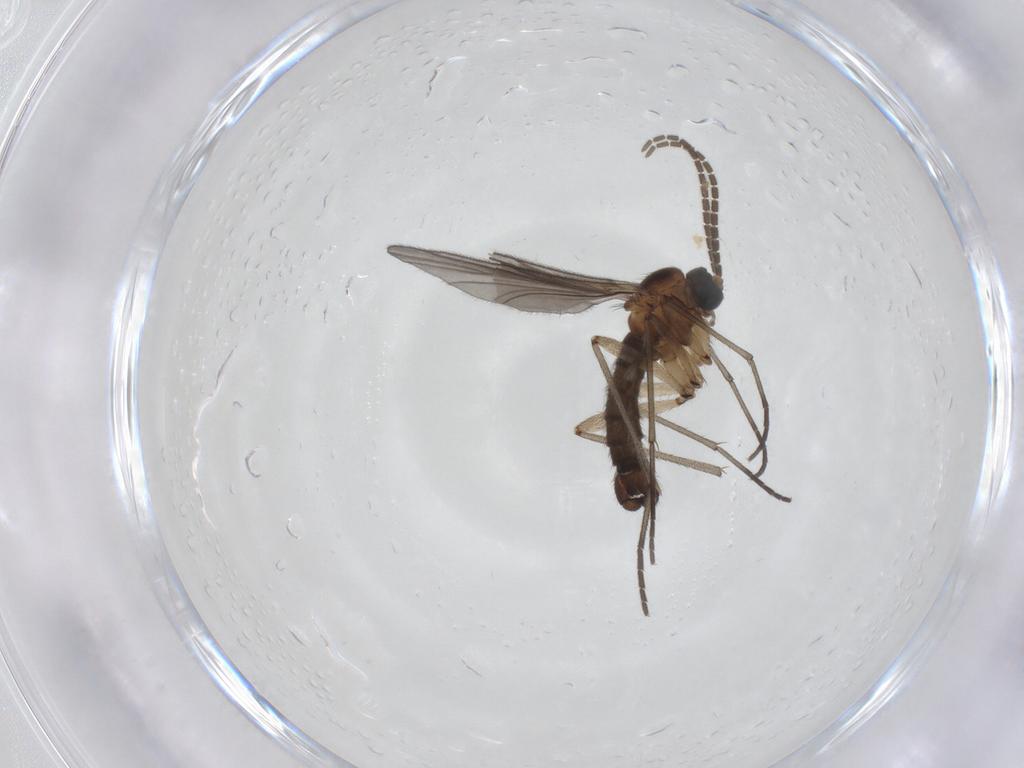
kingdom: Animalia
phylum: Arthropoda
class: Insecta
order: Diptera
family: Sciaridae
